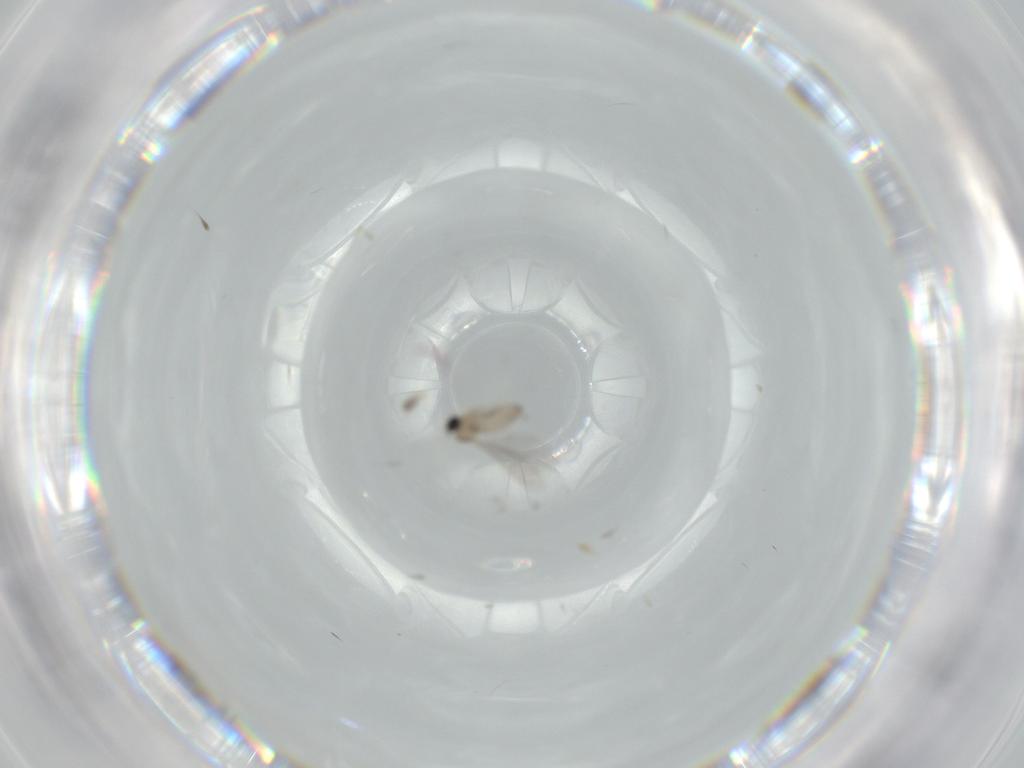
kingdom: Animalia
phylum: Arthropoda
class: Insecta
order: Diptera
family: Cecidomyiidae
